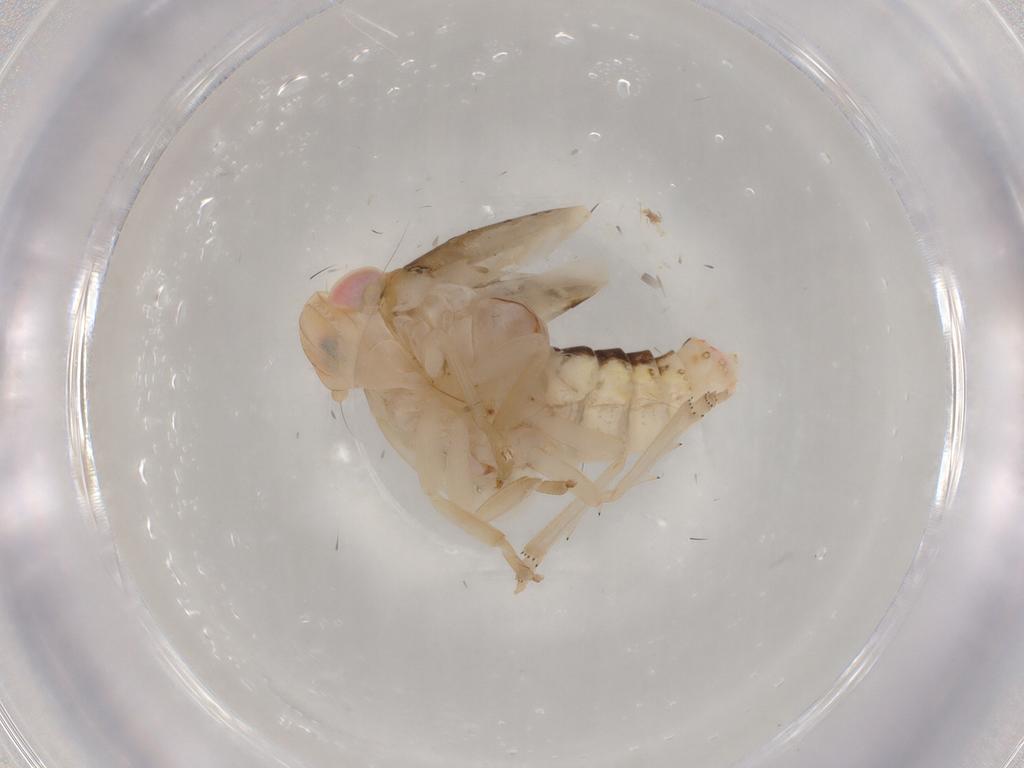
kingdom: Animalia
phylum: Arthropoda
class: Insecta
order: Hemiptera
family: Nogodinidae
